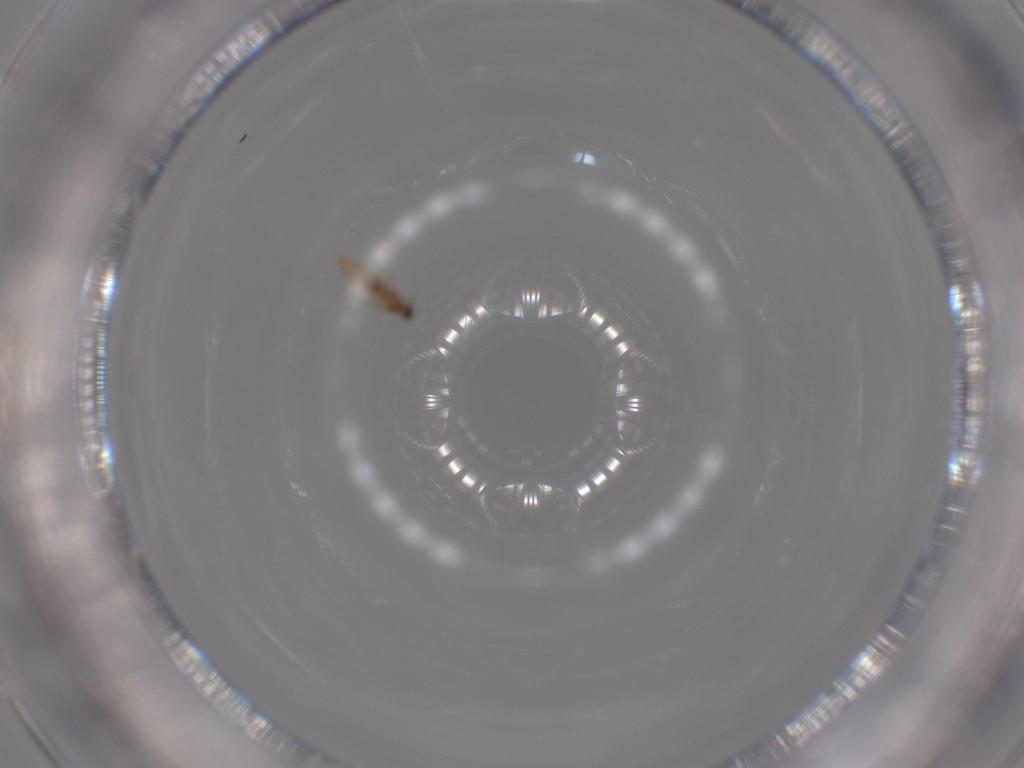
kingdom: Animalia
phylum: Arthropoda
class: Insecta
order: Diptera
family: Cecidomyiidae
